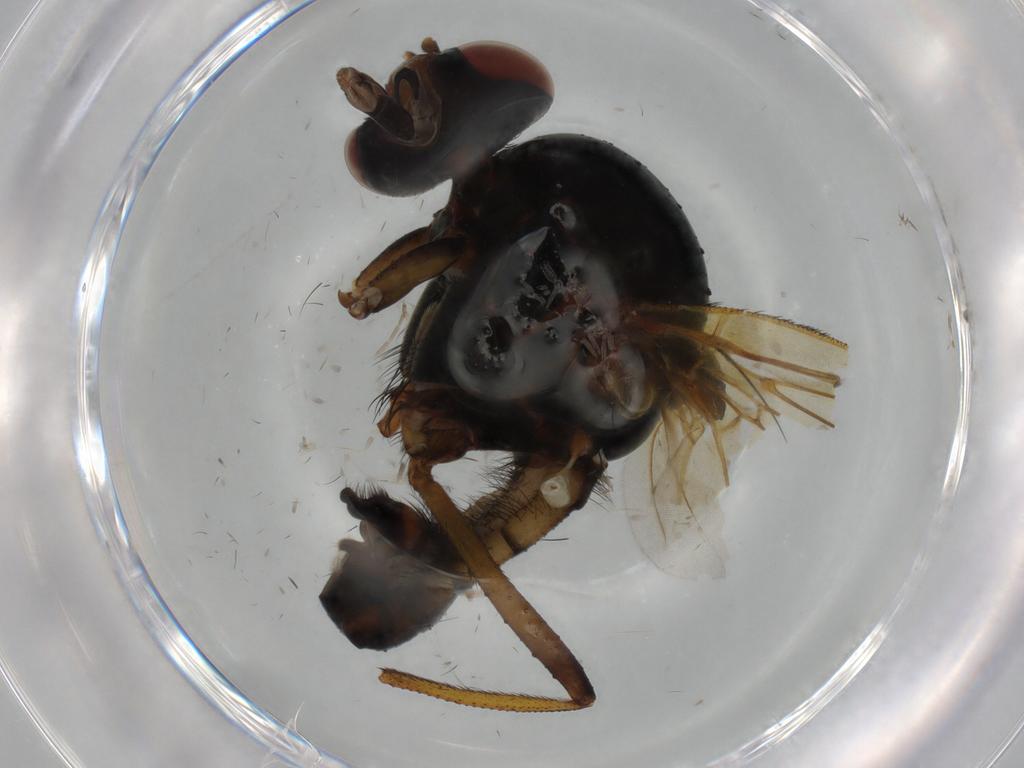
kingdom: Animalia
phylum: Arthropoda
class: Insecta
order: Diptera
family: Anthomyiidae
